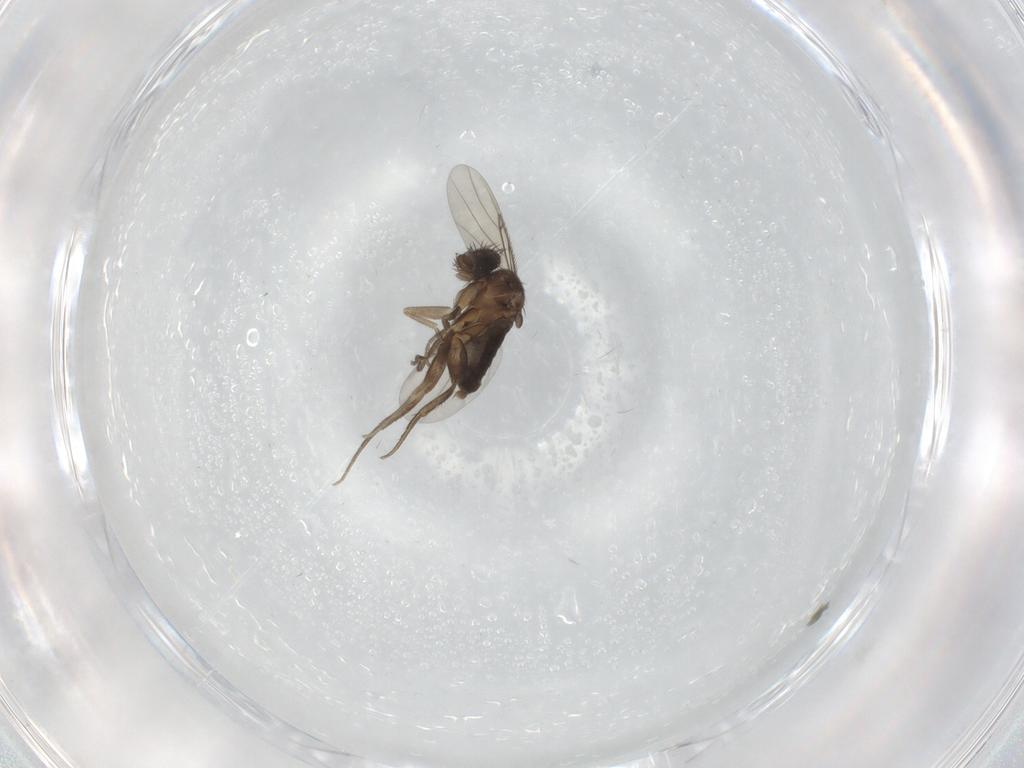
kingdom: Animalia
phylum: Arthropoda
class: Insecta
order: Diptera
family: Phoridae
